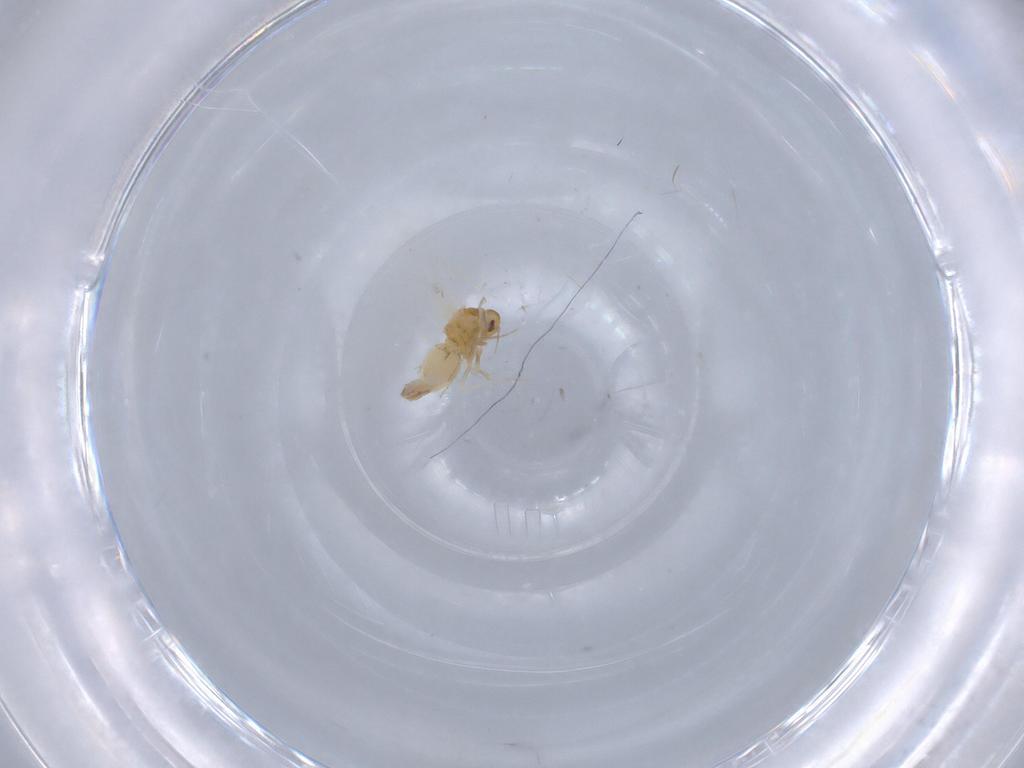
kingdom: Animalia
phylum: Arthropoda
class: Insecta
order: Hemiptera
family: Aleyrodidae
